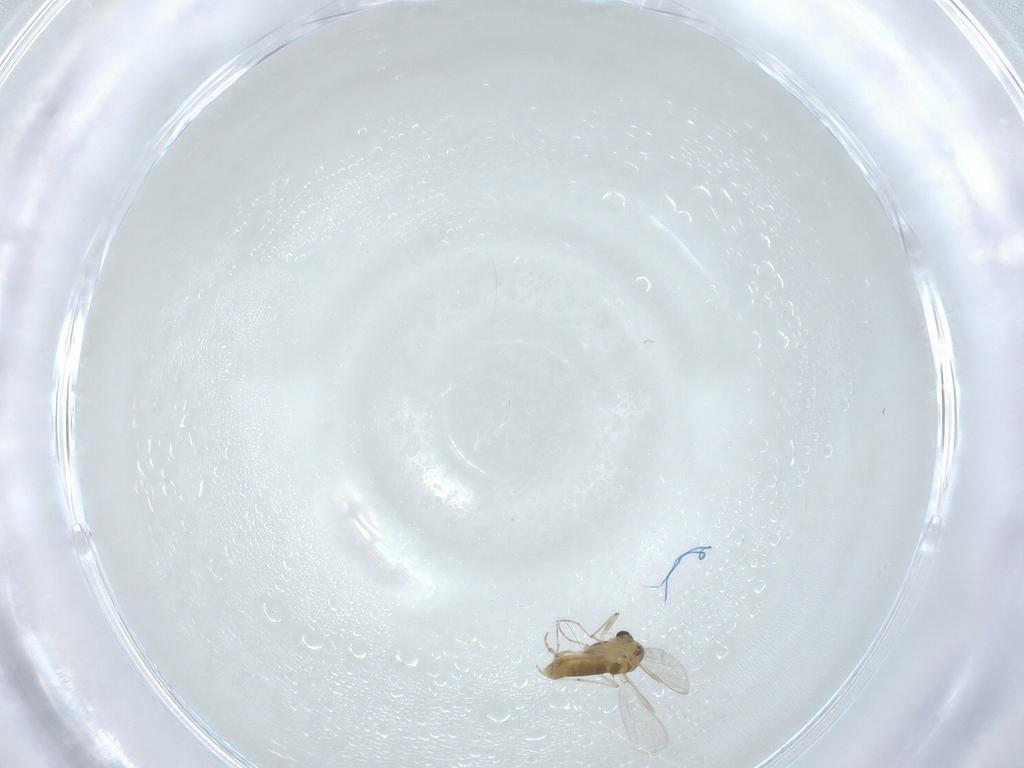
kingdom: Animalia
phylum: Arthropoda
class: Insecta
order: Diptera
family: Chironomidae
